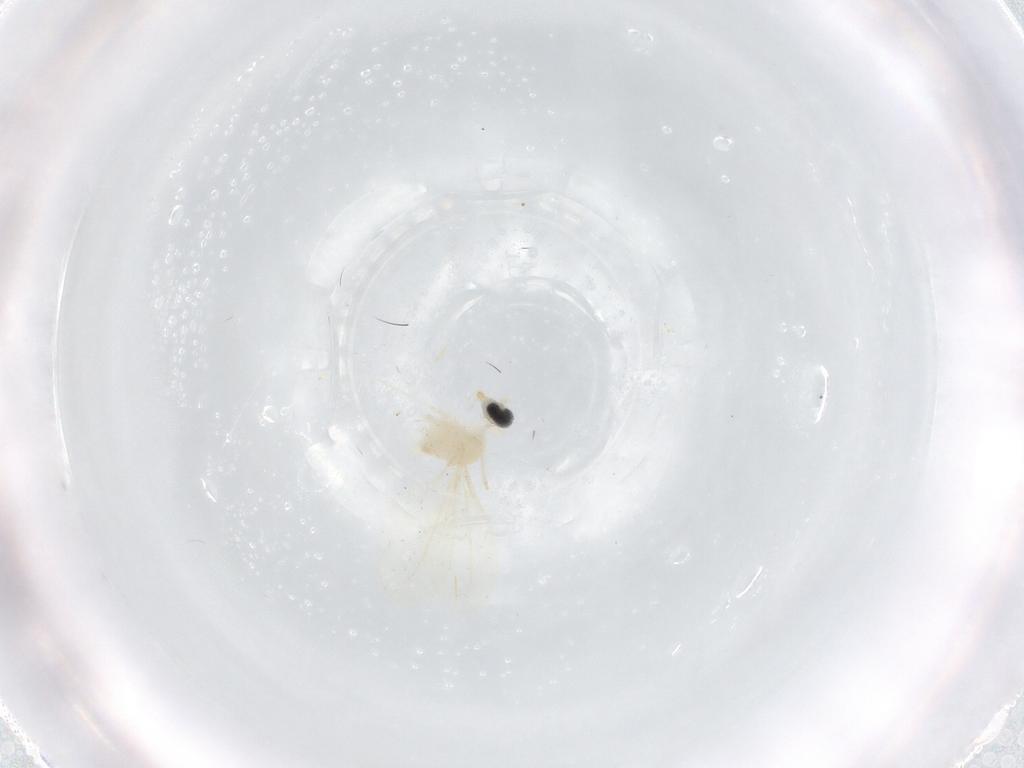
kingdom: Animalia
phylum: Arthropoda
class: Insecta
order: Diptera
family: Cecidomyiidae
